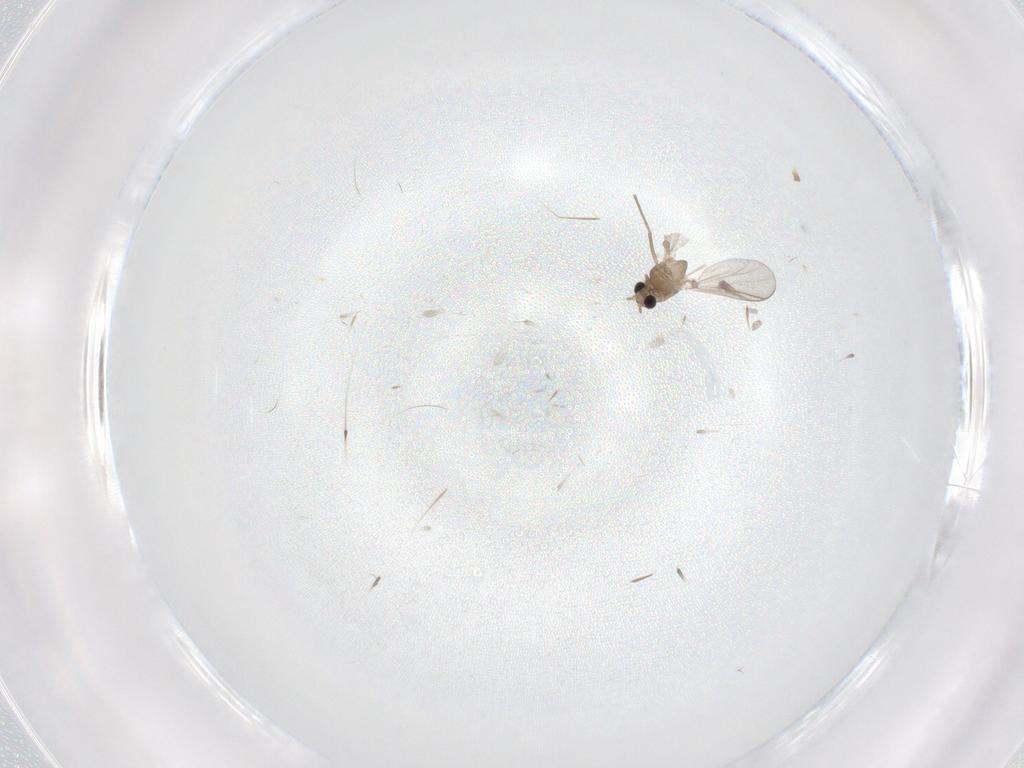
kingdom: Animalia
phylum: Arthropoda
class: Insecta
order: Diptera
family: Chironomidae
